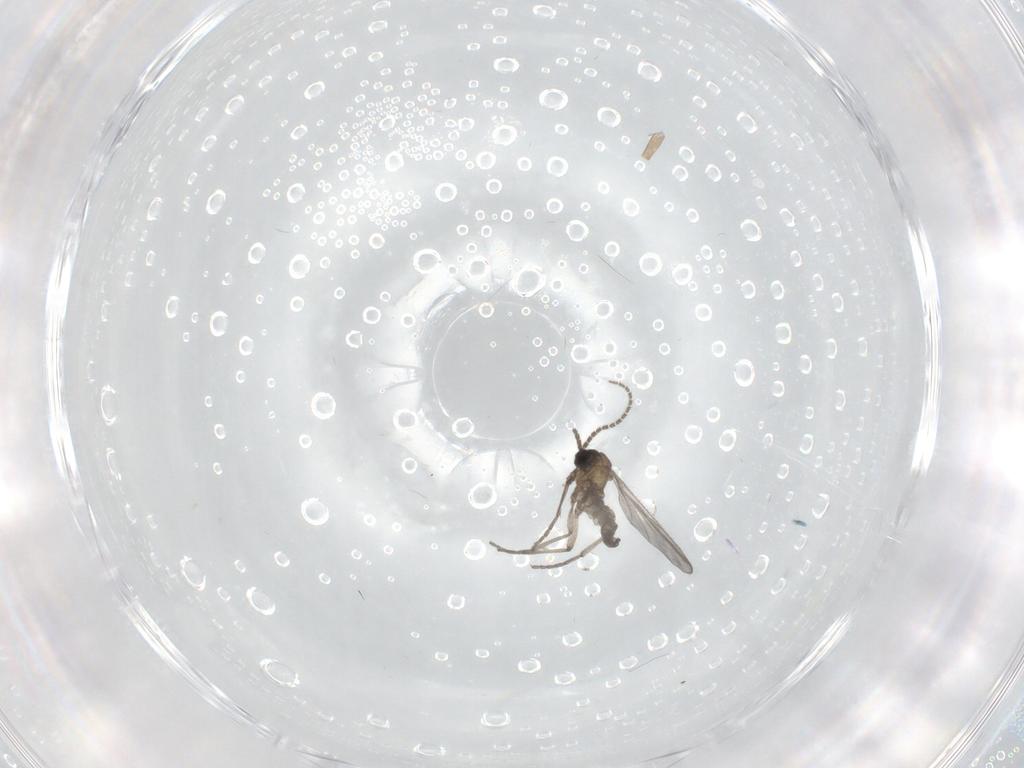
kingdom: Animalia
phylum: Arthropoda
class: Insecta
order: Diptera
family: Sciaridae
